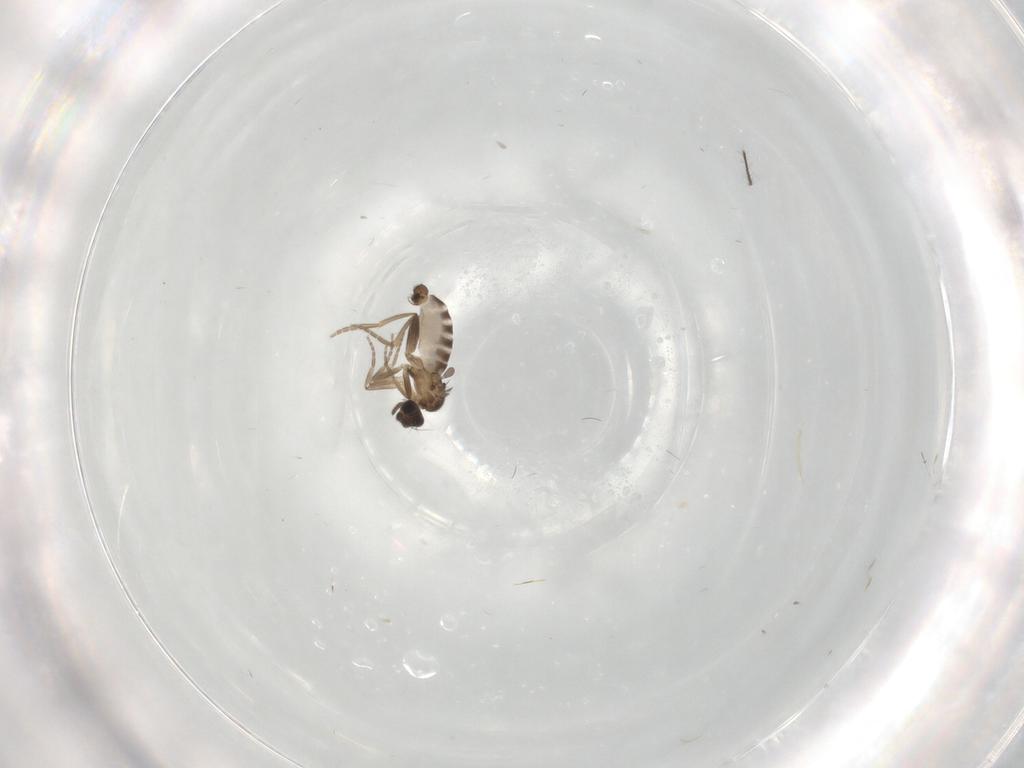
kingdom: Animalia
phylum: Arthropoda
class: Insecta
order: Diptera
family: Cecidomyiidae
